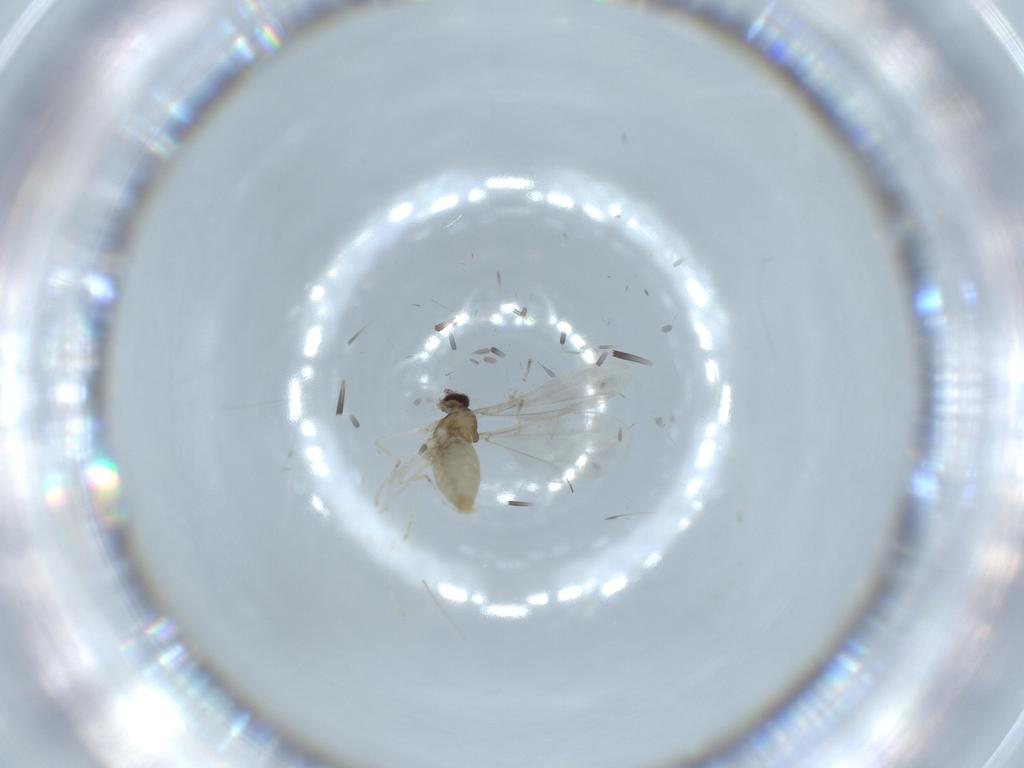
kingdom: Animalia
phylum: Arthropoda
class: Insecta
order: Diptera
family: Cecidomyiidae
